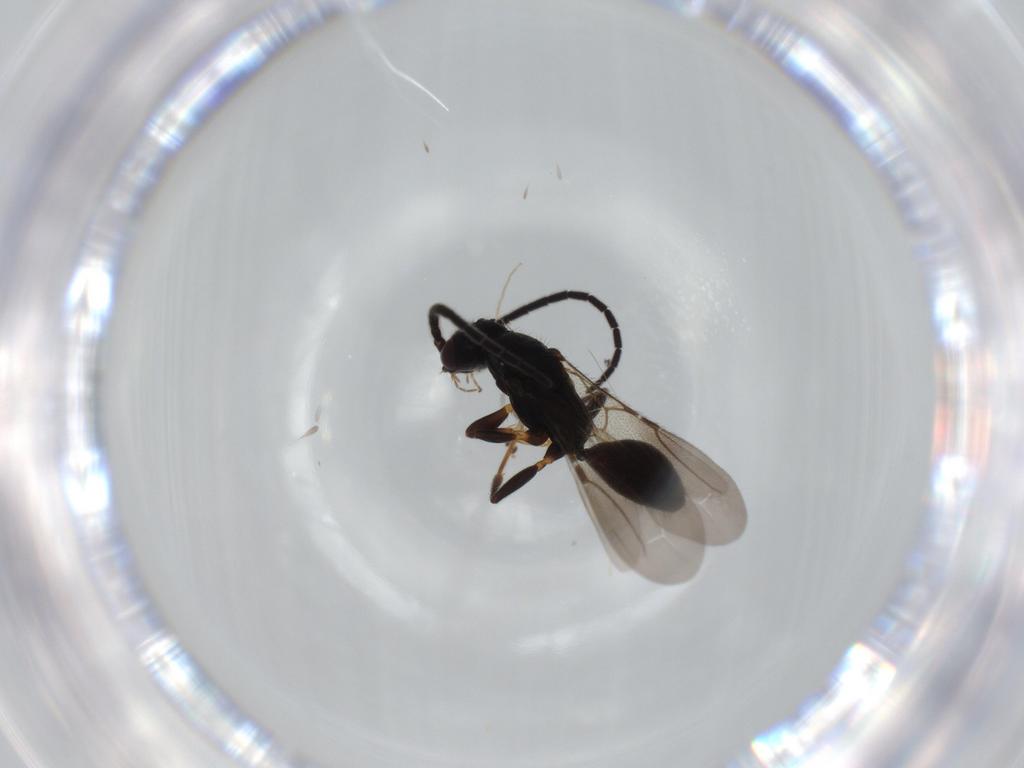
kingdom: Animalia
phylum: Arthropoda
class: Insecta
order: Hymenoptera
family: Bethylidae
